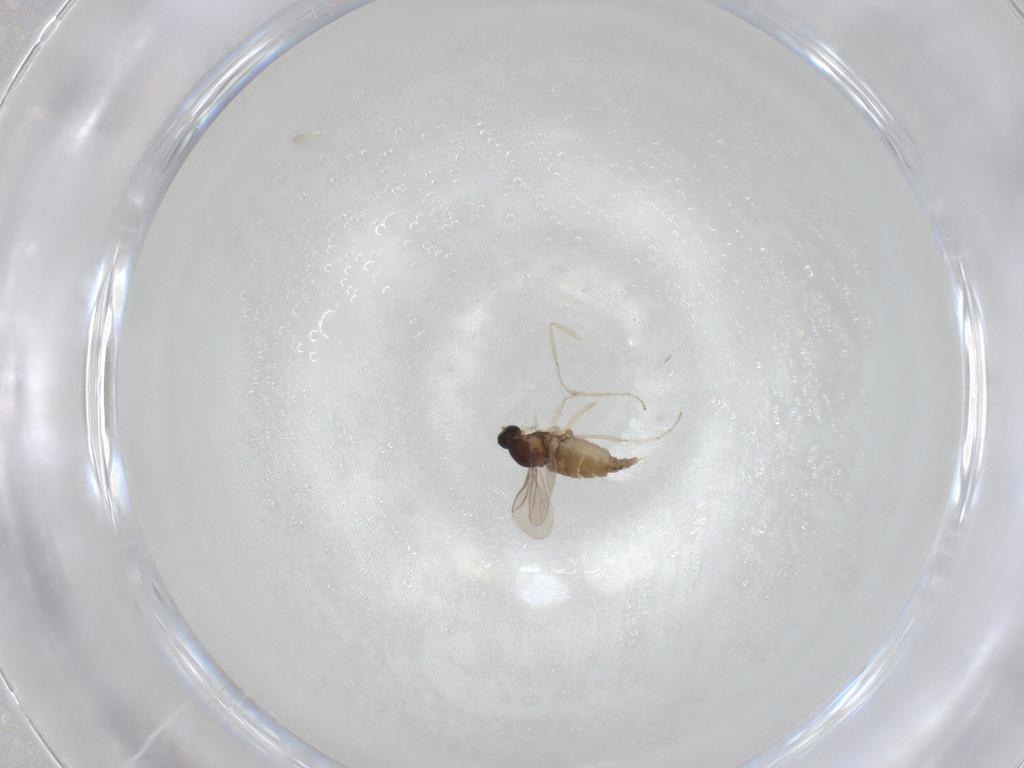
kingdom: Animalia
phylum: Arthropoda
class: Insecta
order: Diptera
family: Cecidomyiidae
